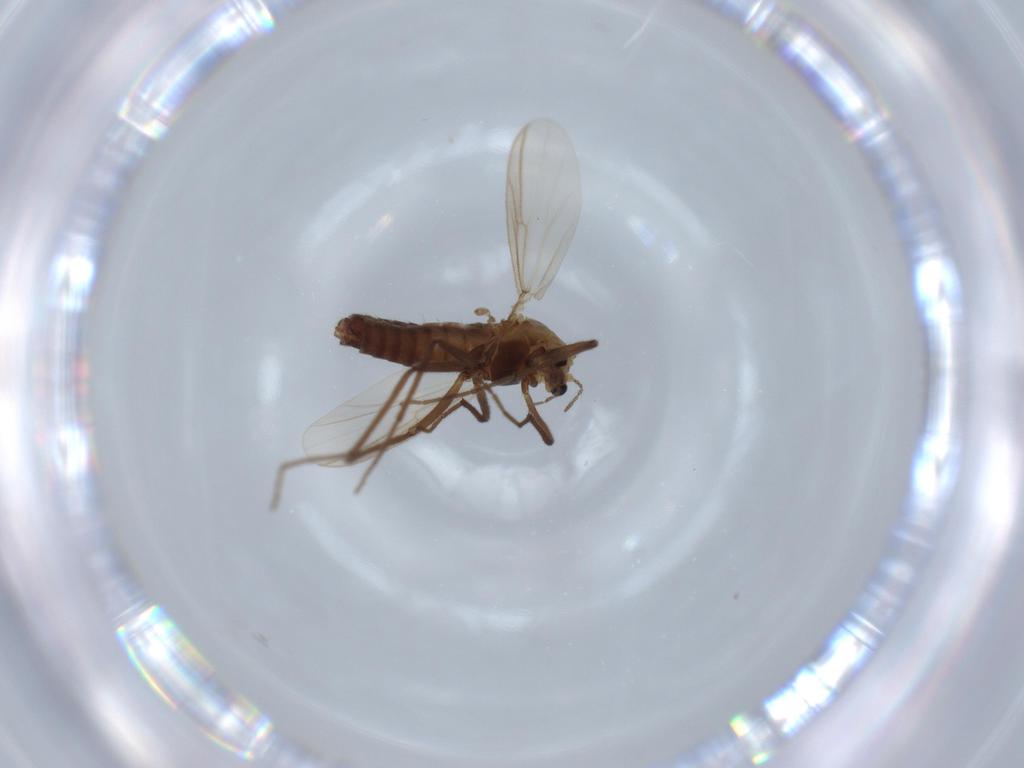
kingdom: Animalia
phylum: Arthropoda
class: Insecta
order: Diptera
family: Chironomidae
